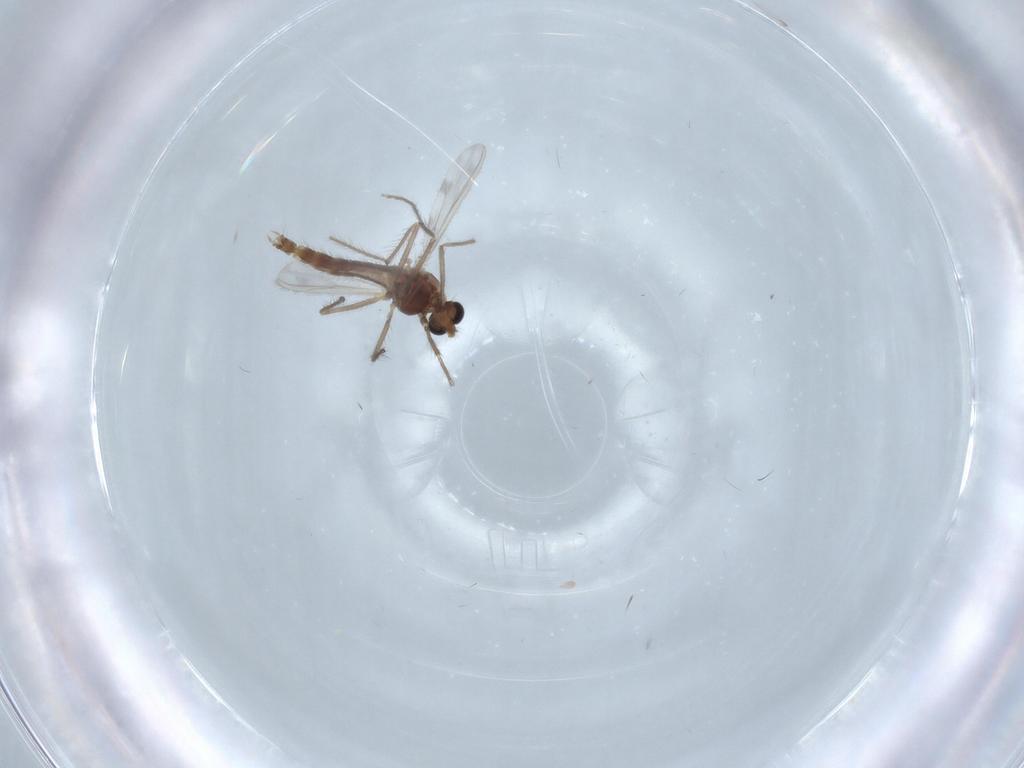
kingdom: Animalia
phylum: Arthropoda
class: Insecta
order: Diptera
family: Chironomidae
